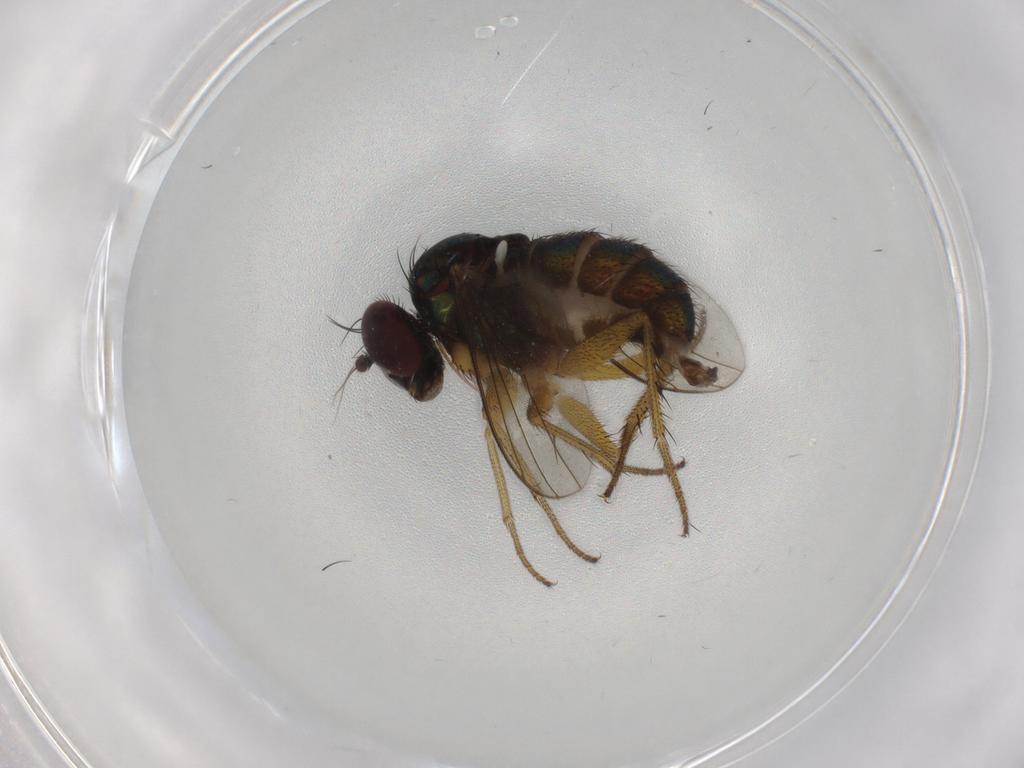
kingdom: Animalia
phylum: Arthropoda
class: Insecta
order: Diptera
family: Dolichopodidae
